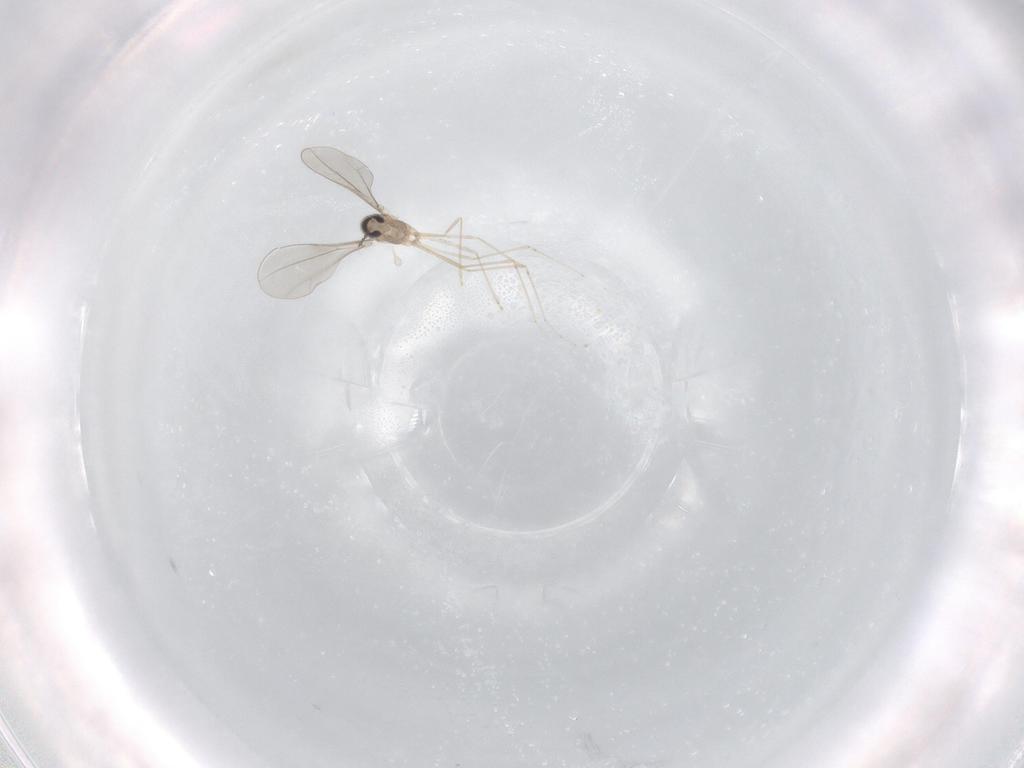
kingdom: Animalia
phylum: Arthropoda
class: Insecta
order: Diptera
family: Cecidomyiidae
